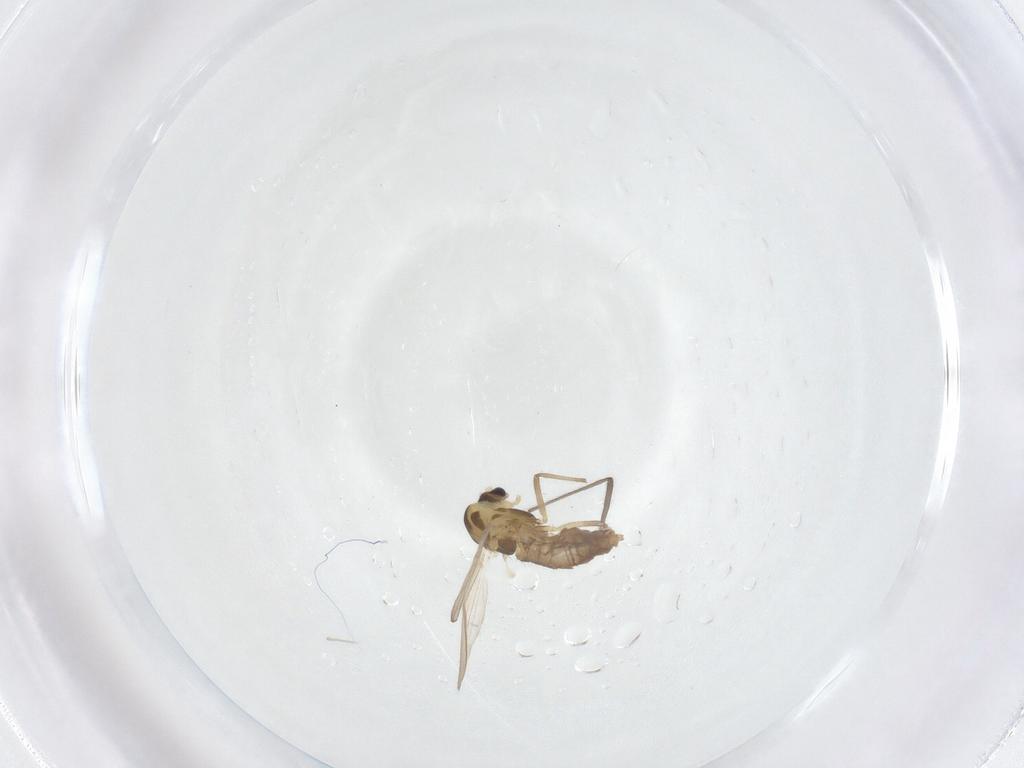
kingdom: Animalia
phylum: Arthropoda
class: Insecta
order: Diptera
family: Chironomidae
